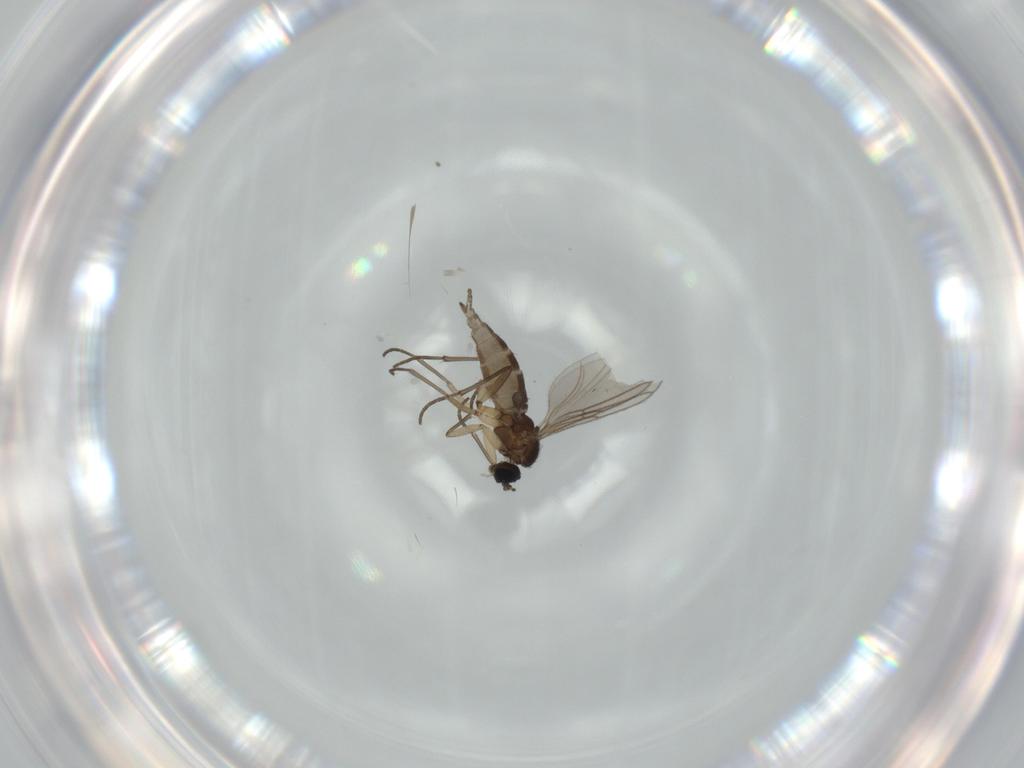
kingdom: Animalia
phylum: Arthropoda
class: Insecta
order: Diptera
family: Sciaridae
